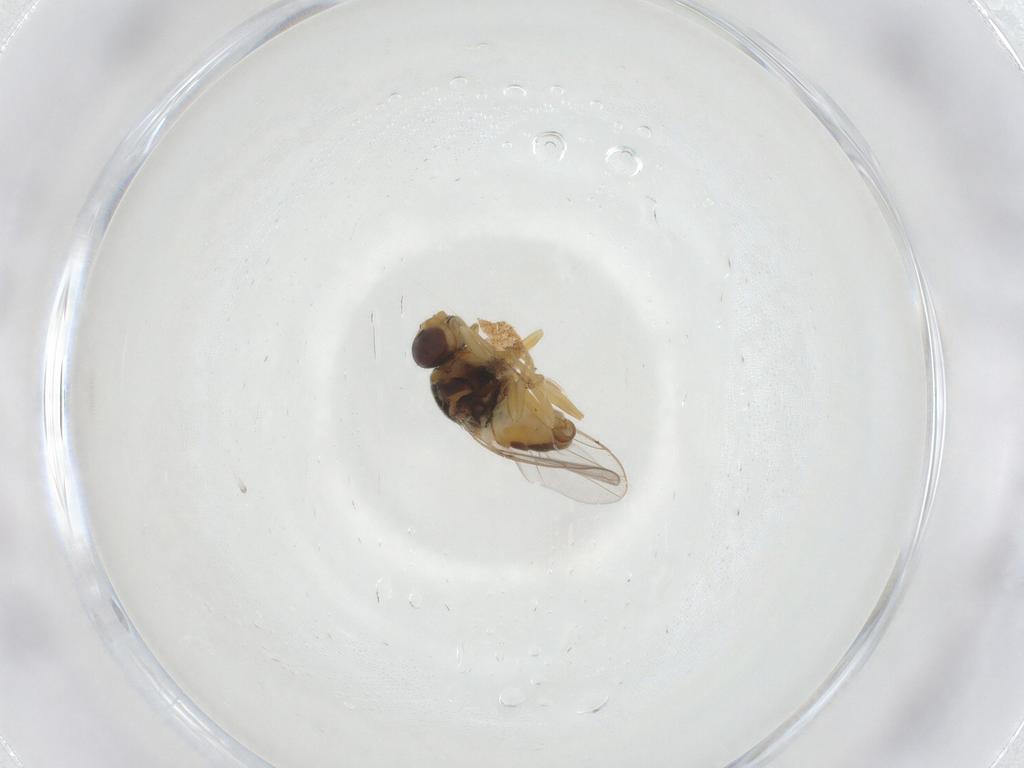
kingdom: Animalia
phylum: Arthropoda
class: Insecta
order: Diptera
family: Chloropidae
